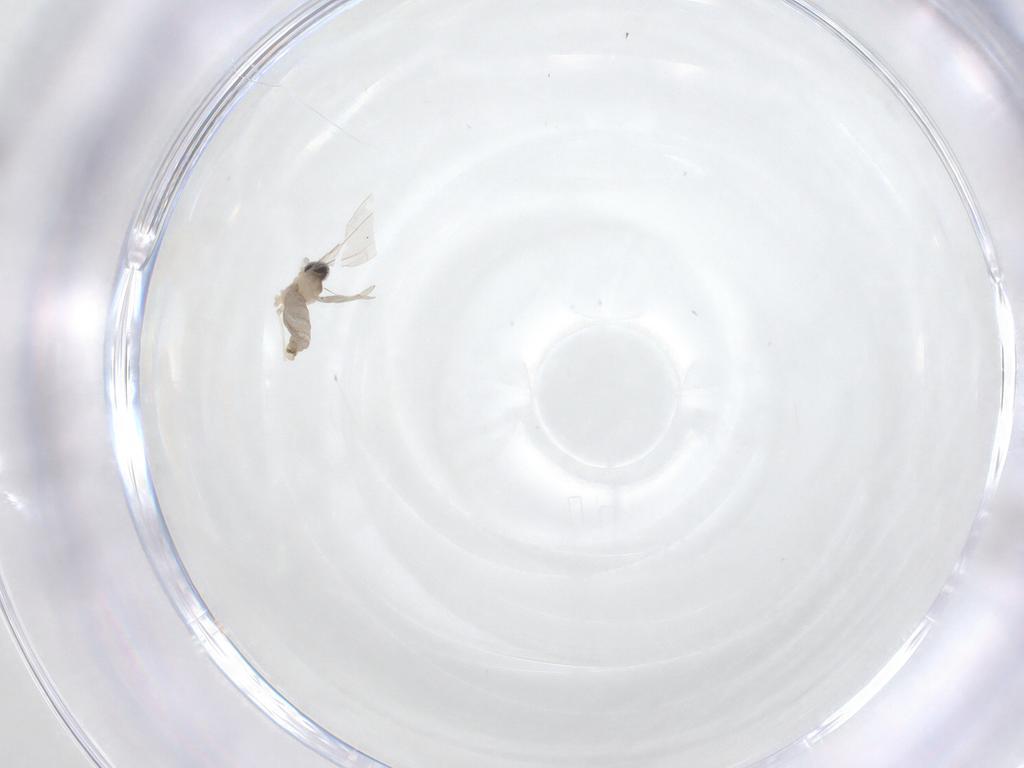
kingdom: Animalia
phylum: Arthropoda
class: Insecta
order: Diptera
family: Cecidomyiidae
